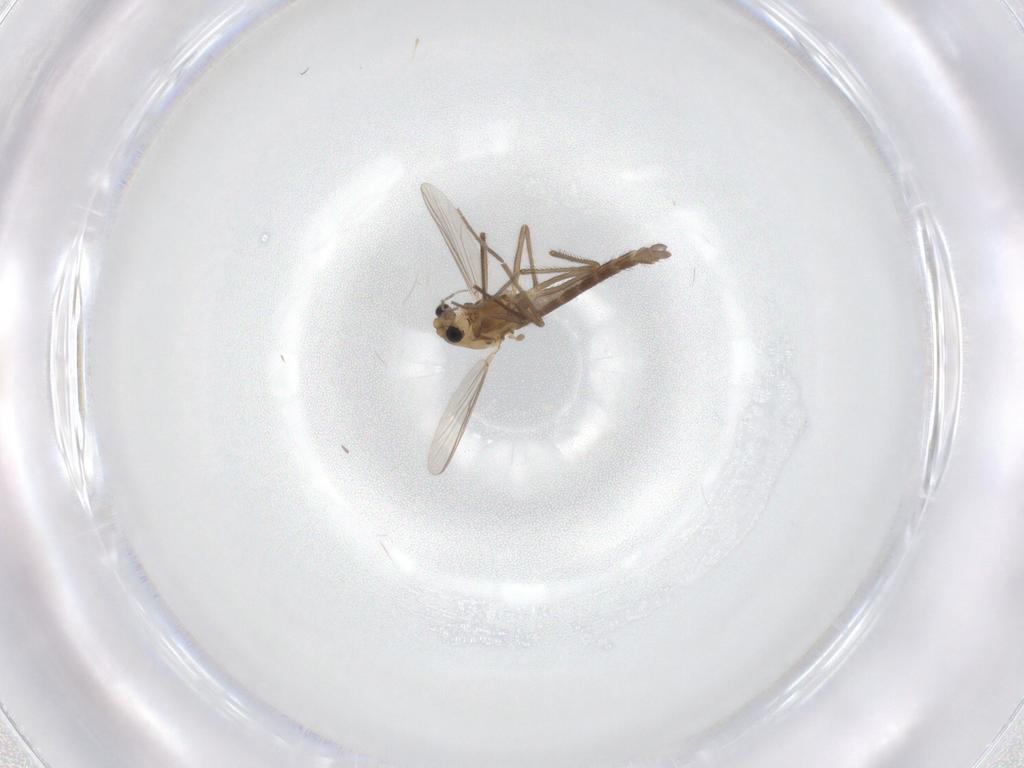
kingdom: Animalia
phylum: Arthropoda
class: Insecta
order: Diptera
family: Chironomidae
